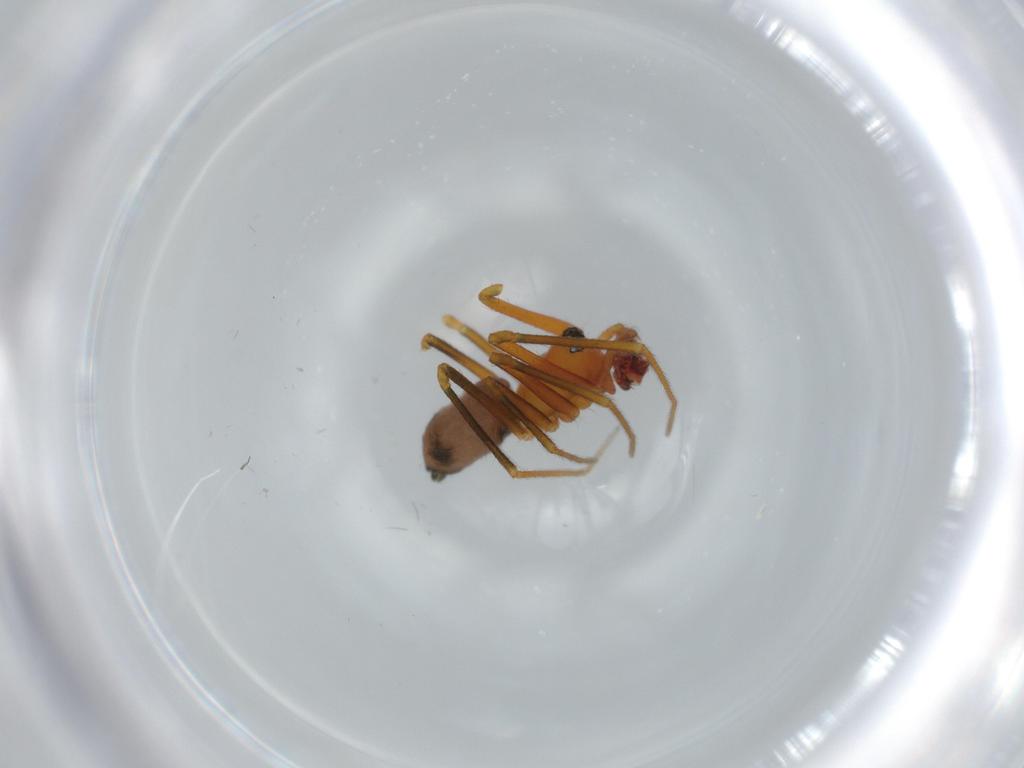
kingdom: Animalia
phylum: Arthropoda
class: Arachnida
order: Araneae
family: Linyphiidae
